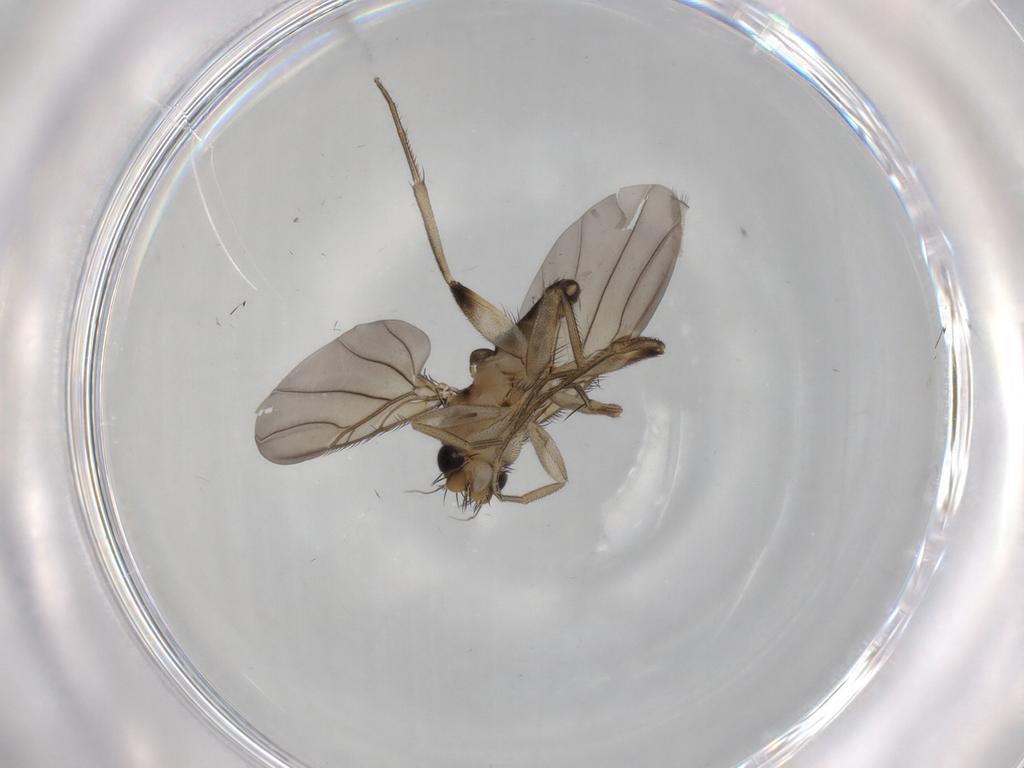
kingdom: Animalia
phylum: Arthropoda
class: Insecta
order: Diptera
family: Phoridae
